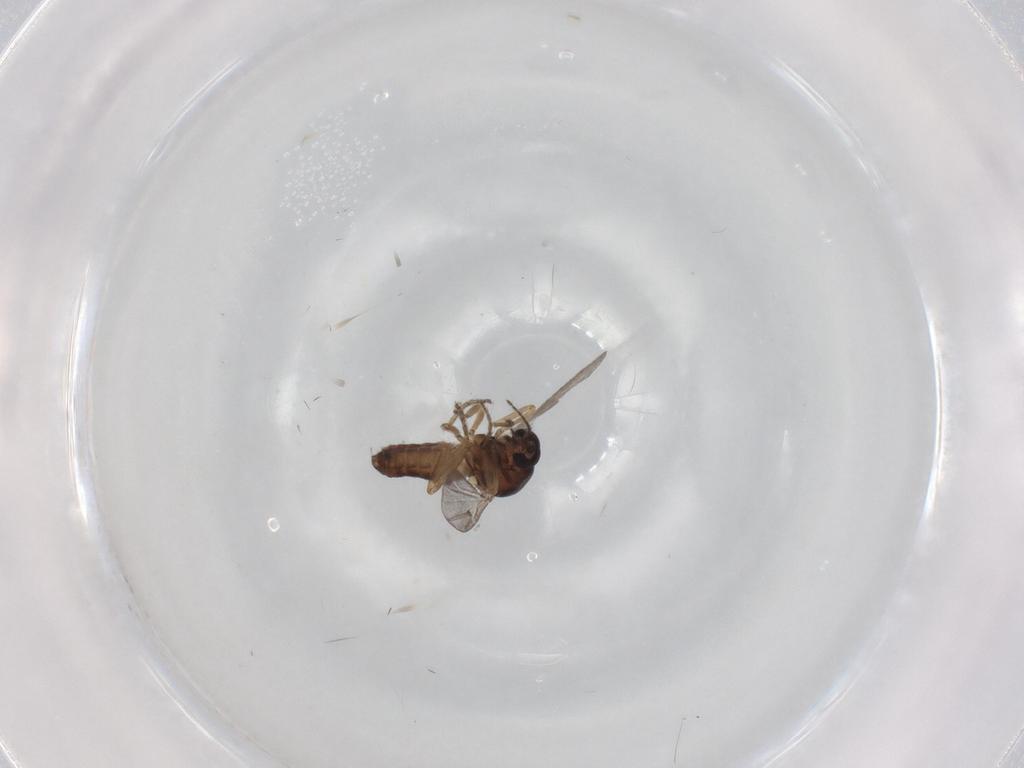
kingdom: Animalia
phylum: Arthropoda
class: Insecta
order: Diptera
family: Ceratopogonidae
